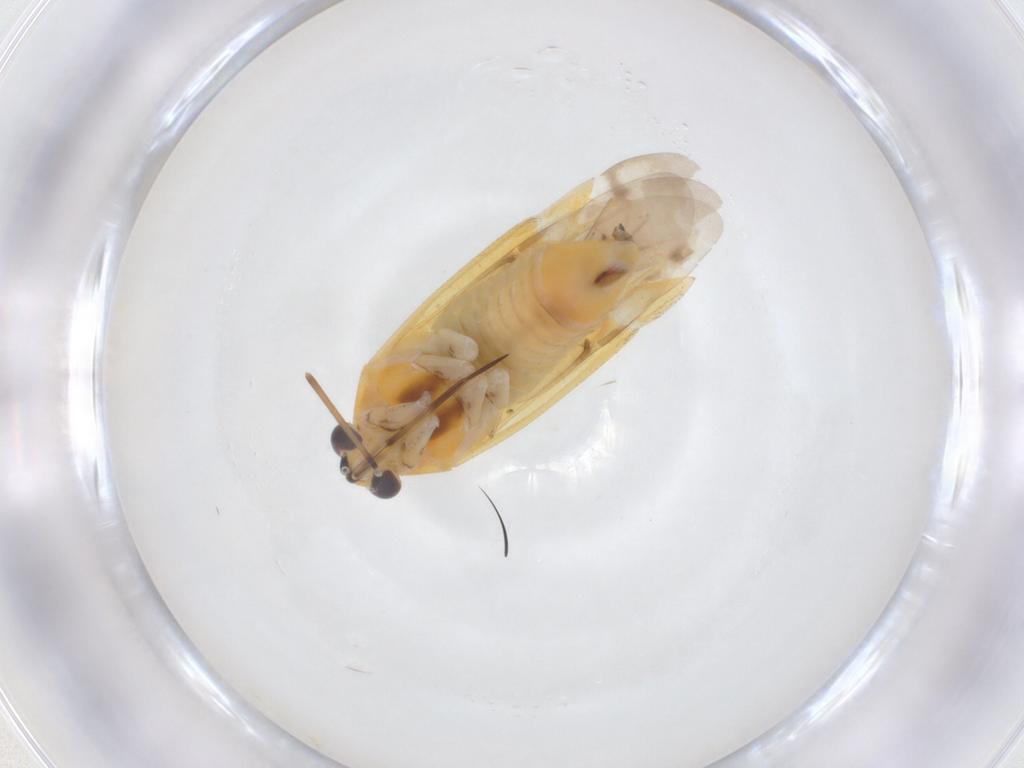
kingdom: Animalia
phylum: Arthropoda
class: Insecta
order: Hemiptera
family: Miridae
